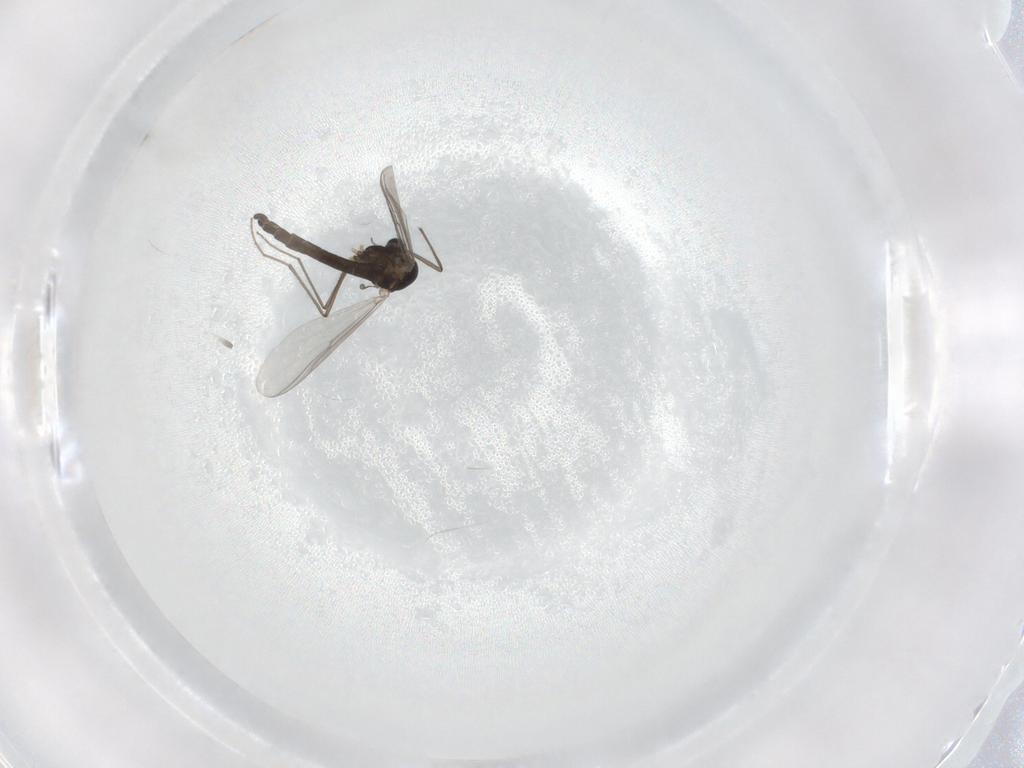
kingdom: Animalia
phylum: Arthropoda
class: Insecta
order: Diptera
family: Chironomidae
